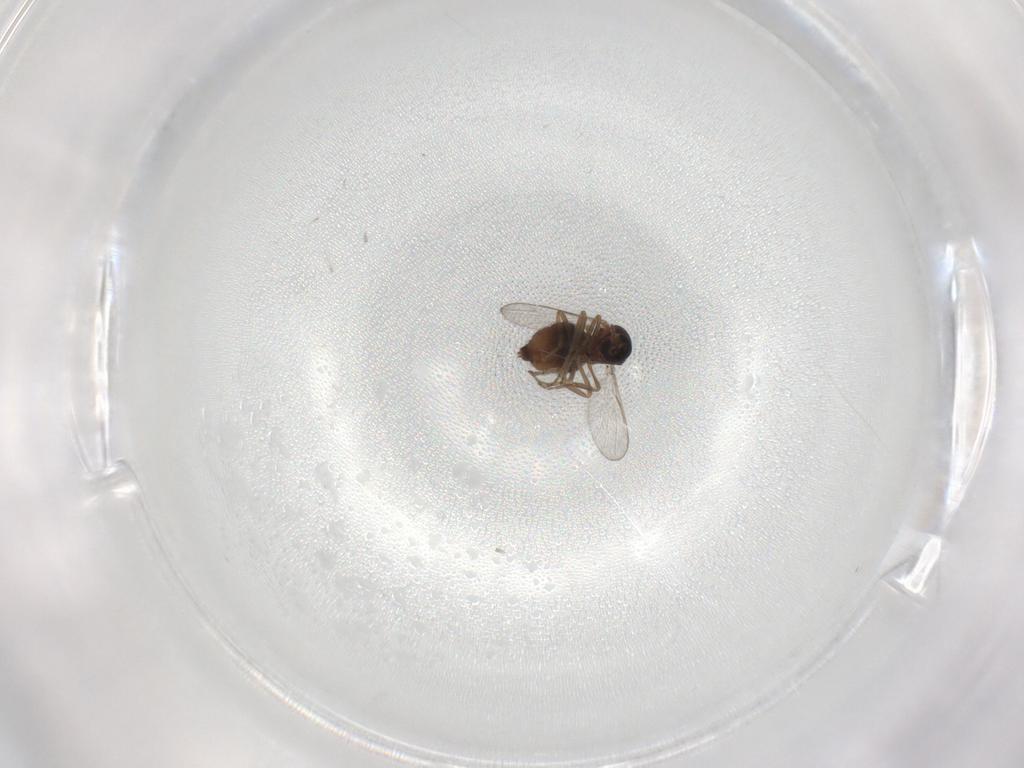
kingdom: Animalia
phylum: Arthropoda
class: Insecta
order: Diptera
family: Ceratopogonidae
